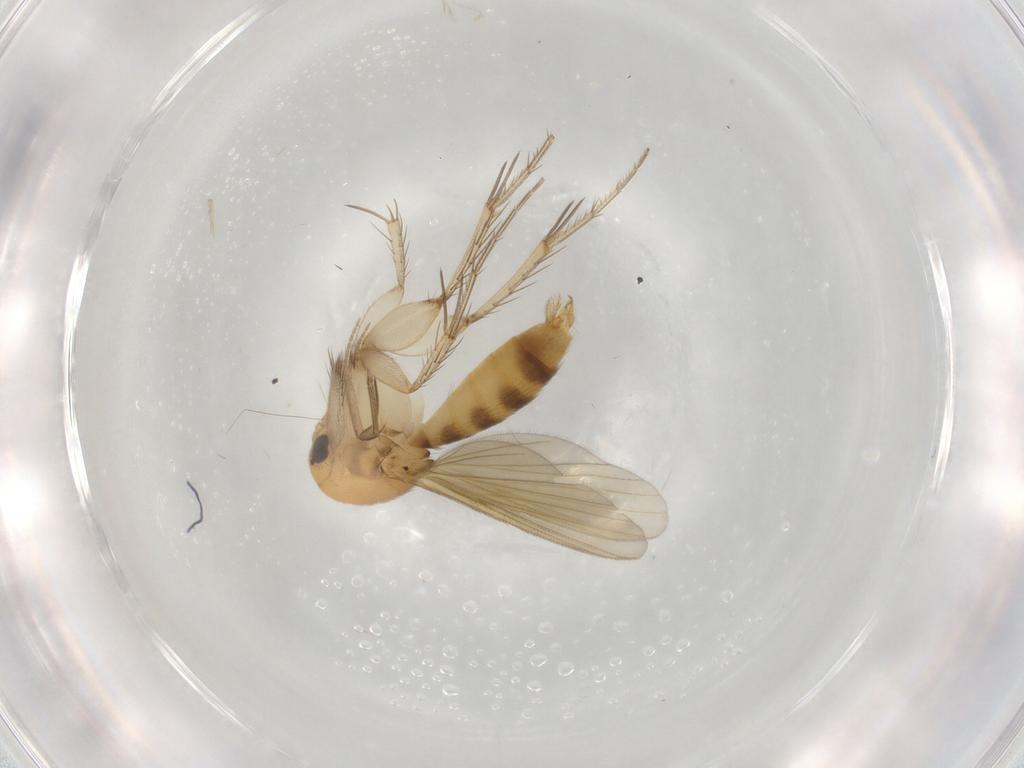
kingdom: Animalia
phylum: Arthropoda
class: Insecta
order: Diptera
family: Mycetophilidae
